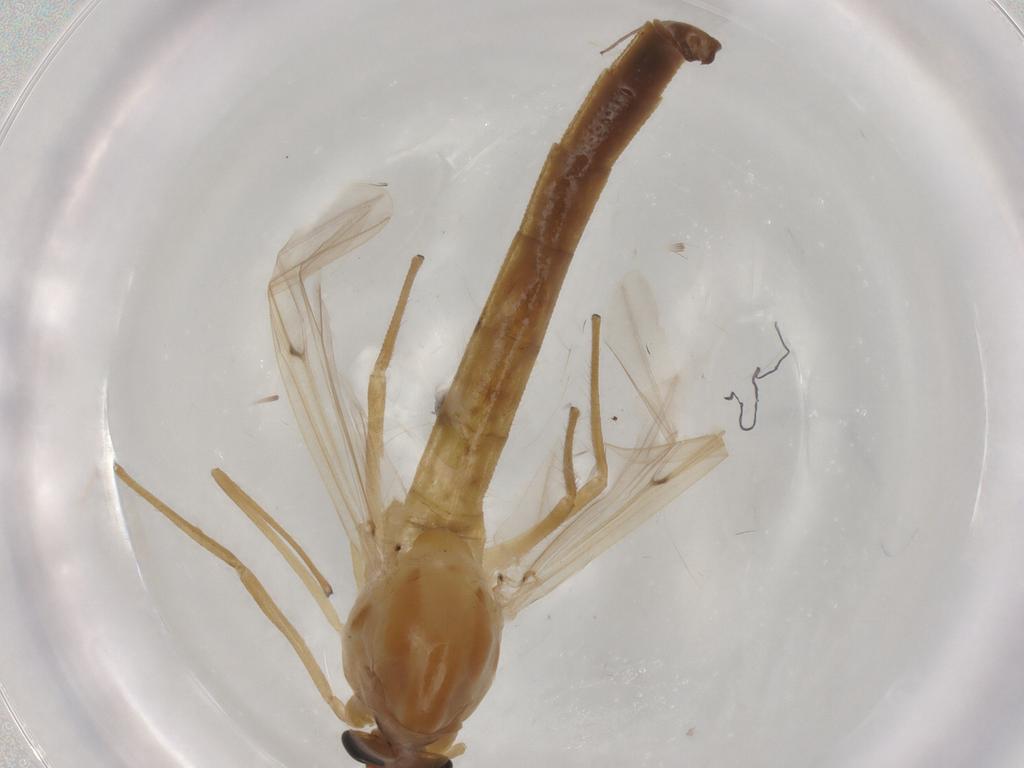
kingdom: Animalia
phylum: Arthropoda
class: Insecta
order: Diptera
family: Chironomidae
